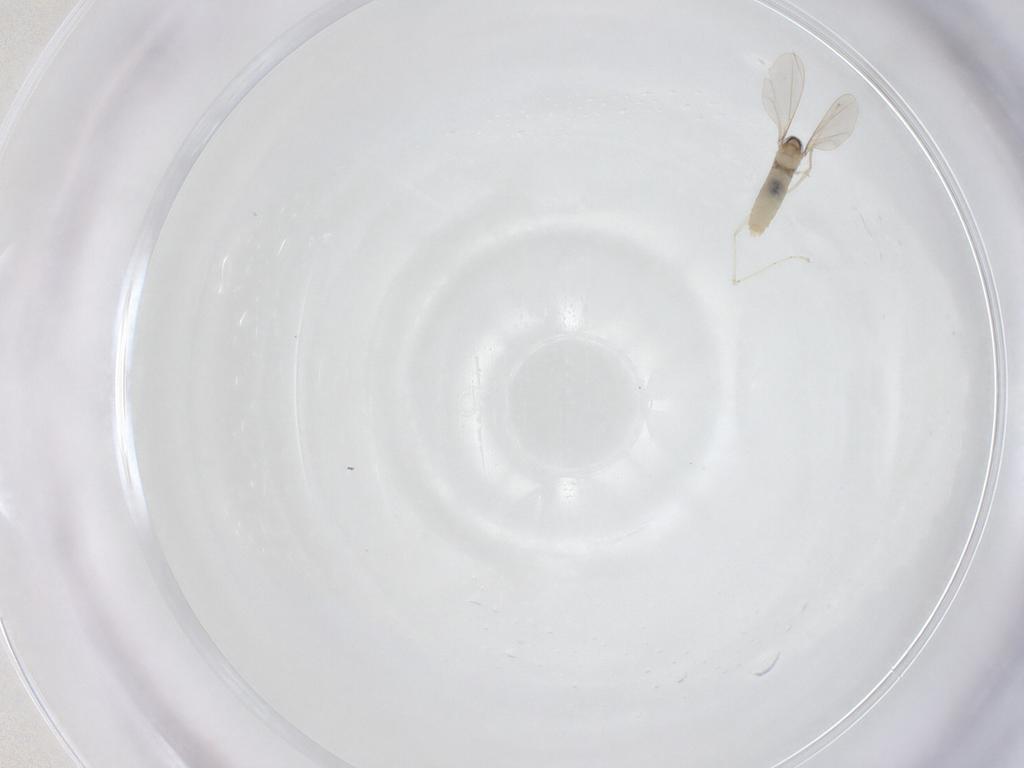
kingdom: Animalia
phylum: Arthropoda
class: Insecta
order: Diptera
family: Cecidomyiidae
